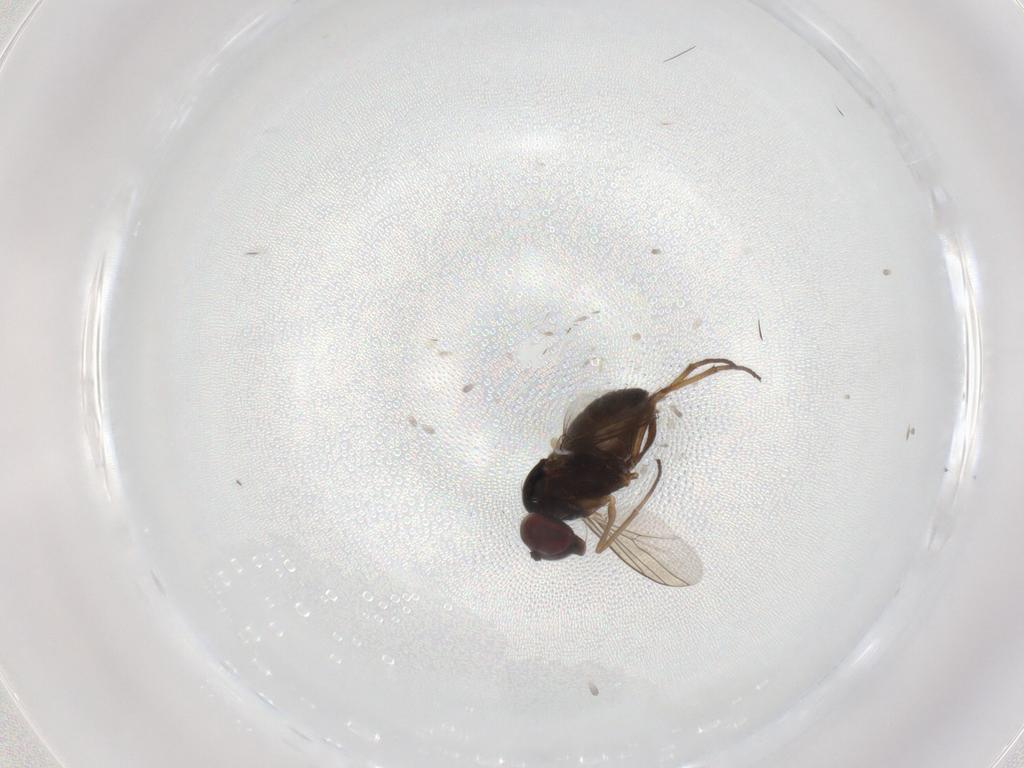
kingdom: Animalia
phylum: Arthropoda
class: Insecta
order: Diptera
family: Dolichopodidae
